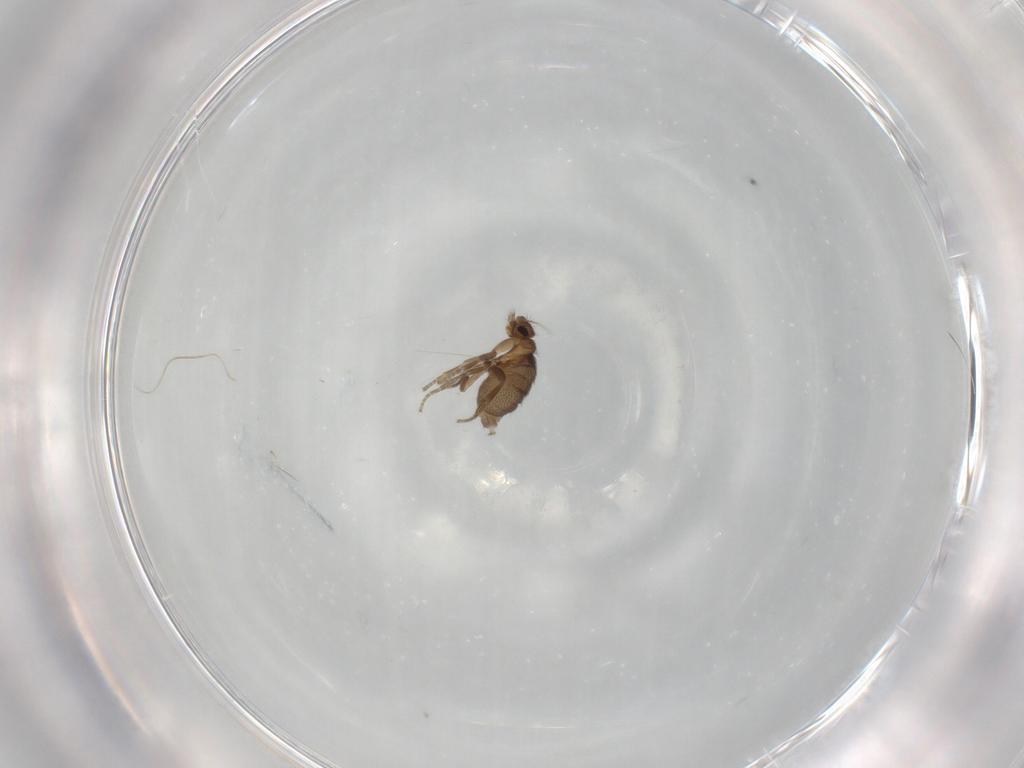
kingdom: Animalia
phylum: Arthropoda
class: Insecta
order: Diptera
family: Phoridae
